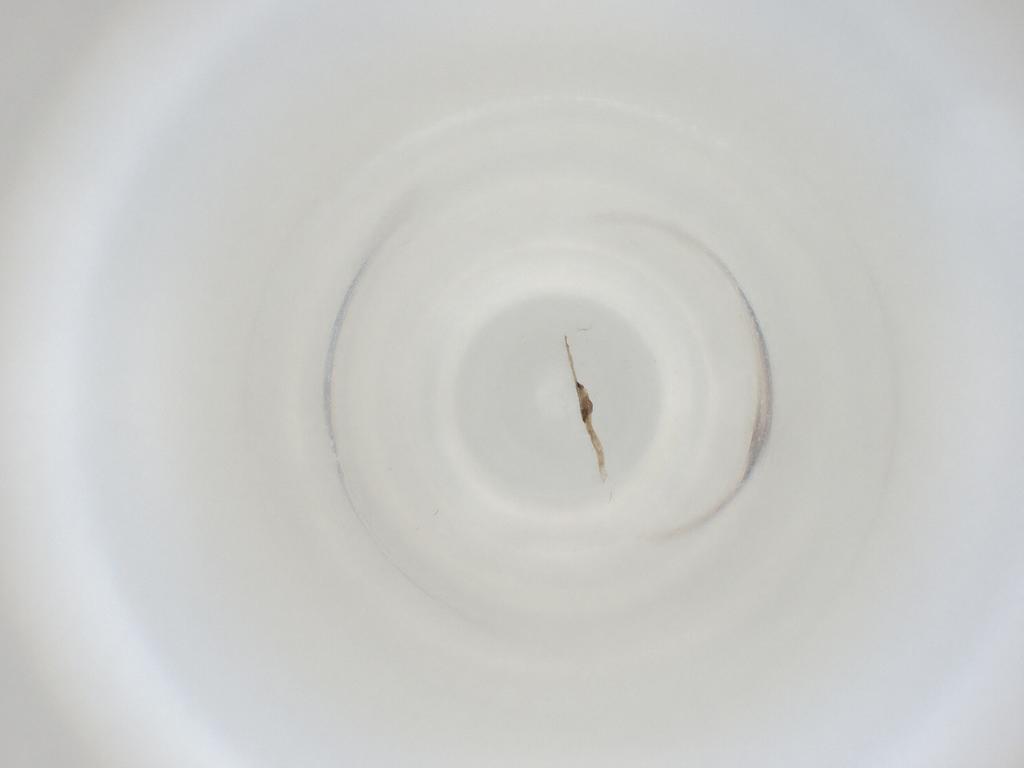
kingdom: Animalia
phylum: Arthropoda
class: Insecta
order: Diptera
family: Cecidomyiidae
